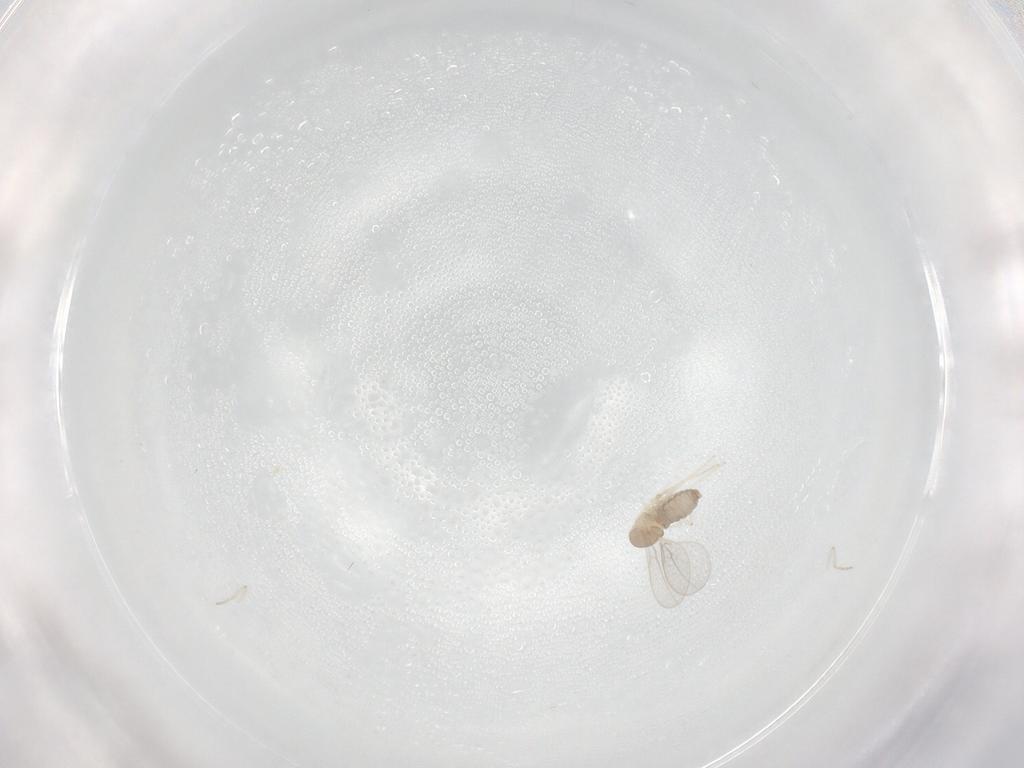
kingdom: Animalia
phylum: Arthropoda
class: Insecta
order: Diptera
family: Cecidomyiidae
